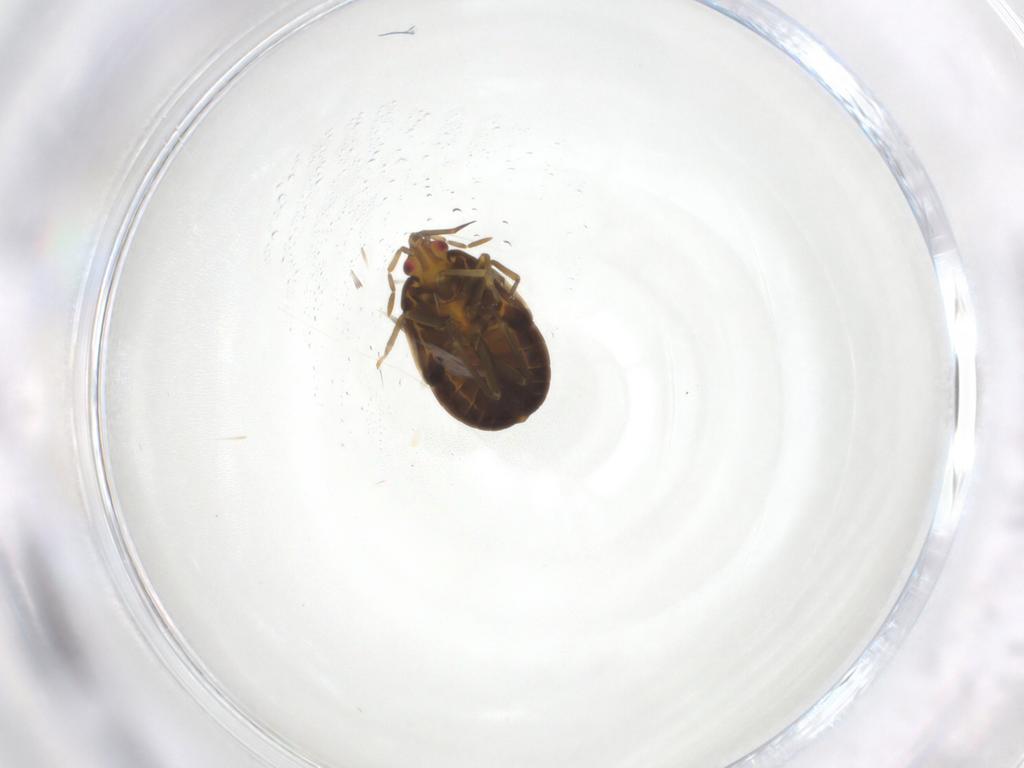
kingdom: Animalia
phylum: Arthropoda
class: Insecta
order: Hemiptera
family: Anthocoridae
